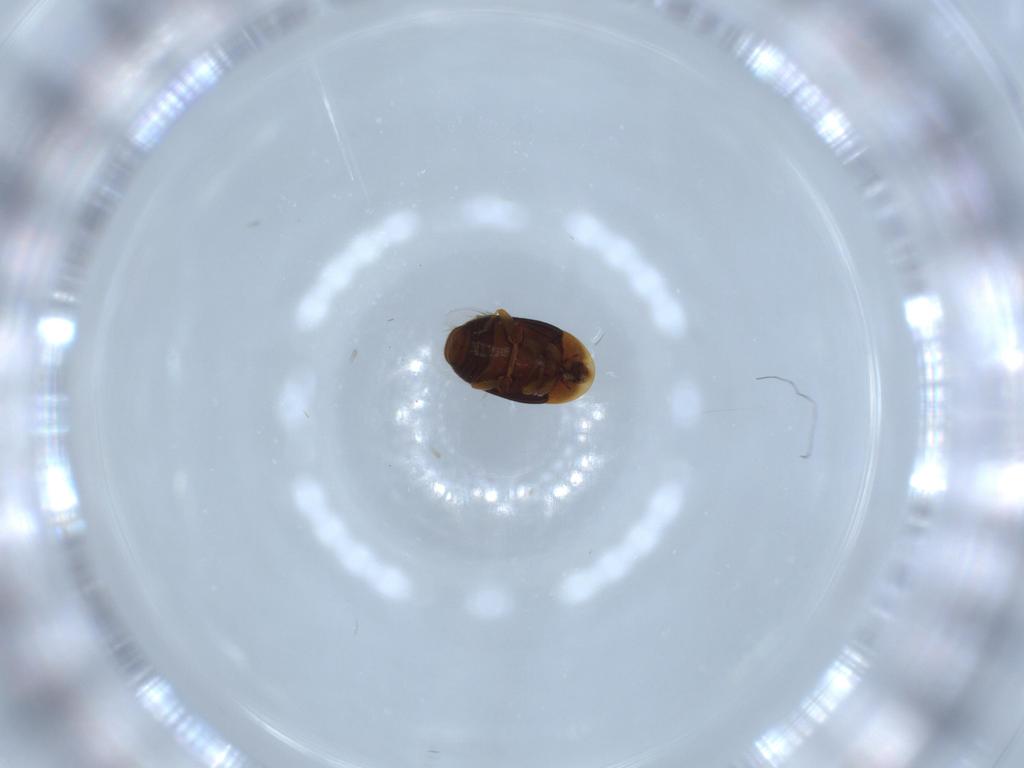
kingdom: Animalia
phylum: Arthropoda
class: Insecta
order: Coleoptera
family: Corylophidae
